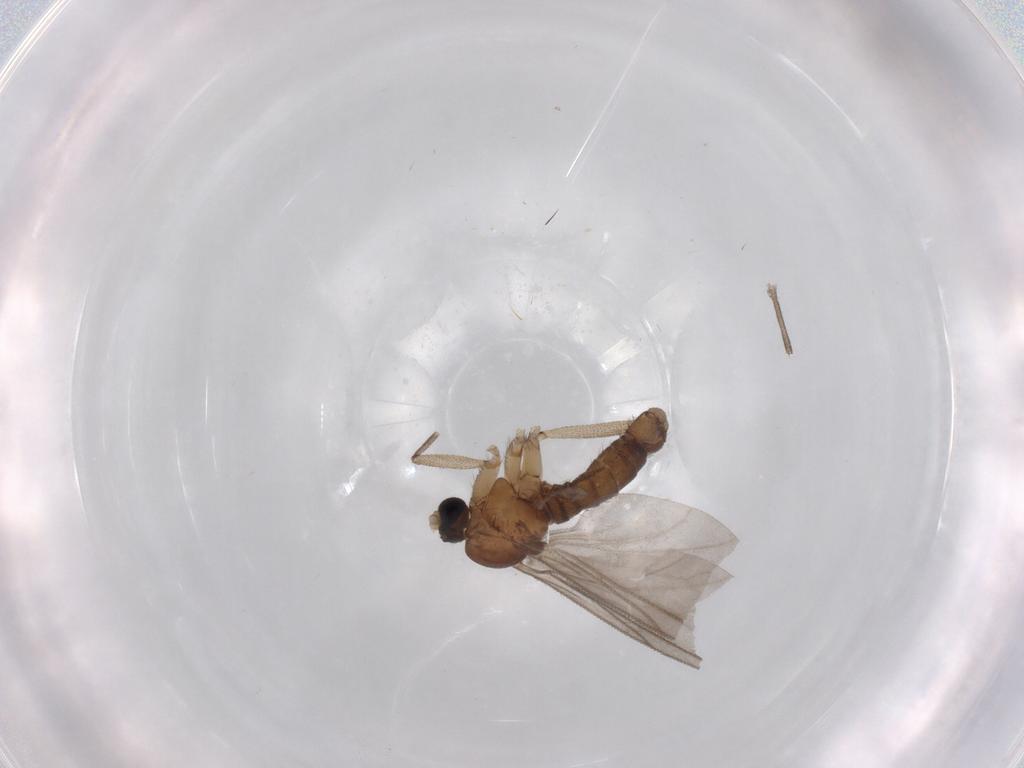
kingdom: Animalia
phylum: Arthropoda
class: Insecta
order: Diptera
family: Sciaridae
